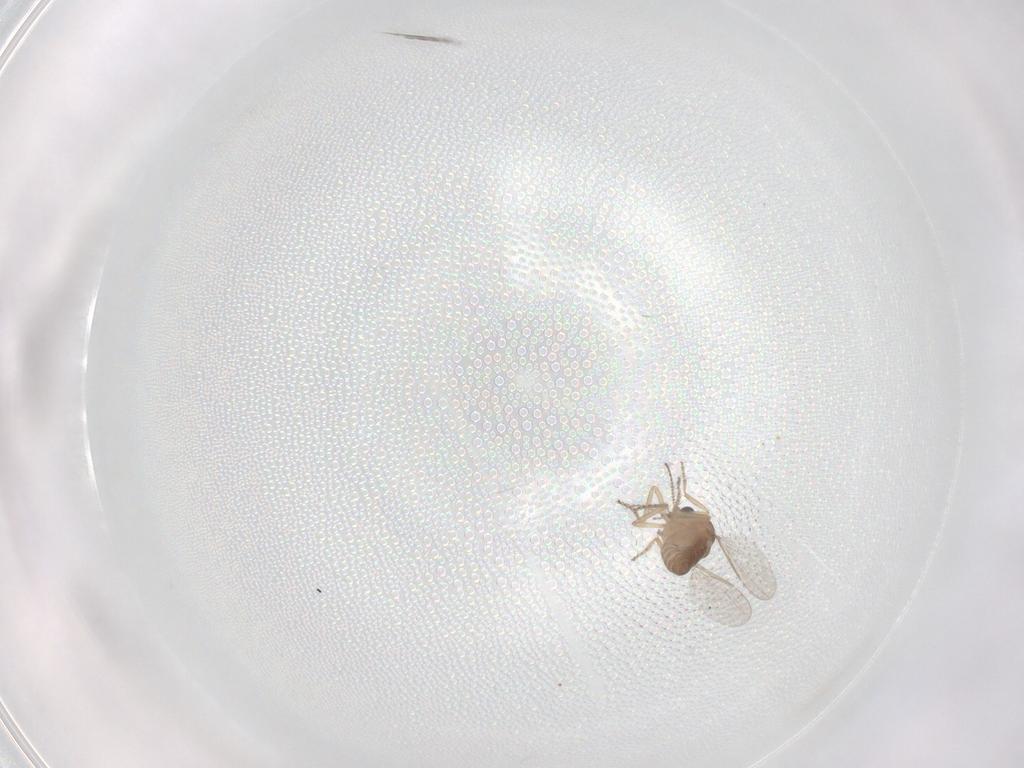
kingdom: Animalia
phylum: Arthropoda
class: Insecta
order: Diptera
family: Ceratopogonidae
